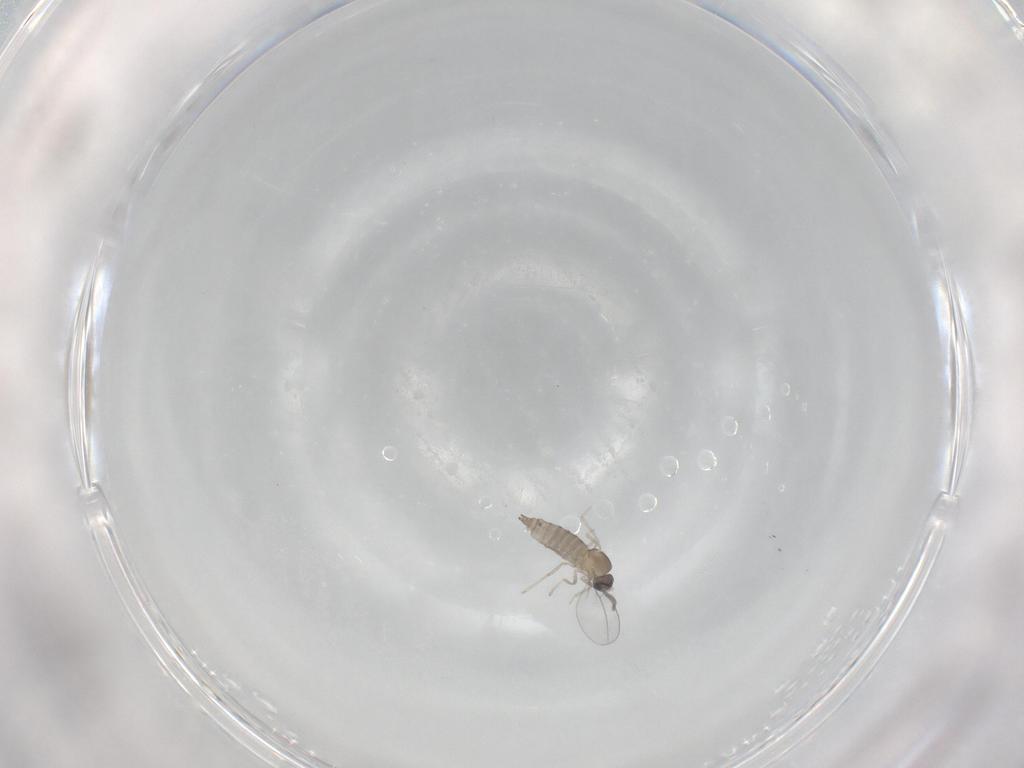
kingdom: Animalia
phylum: Arthropoda
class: Insecta
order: Diptera
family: Cecidomyiidae
